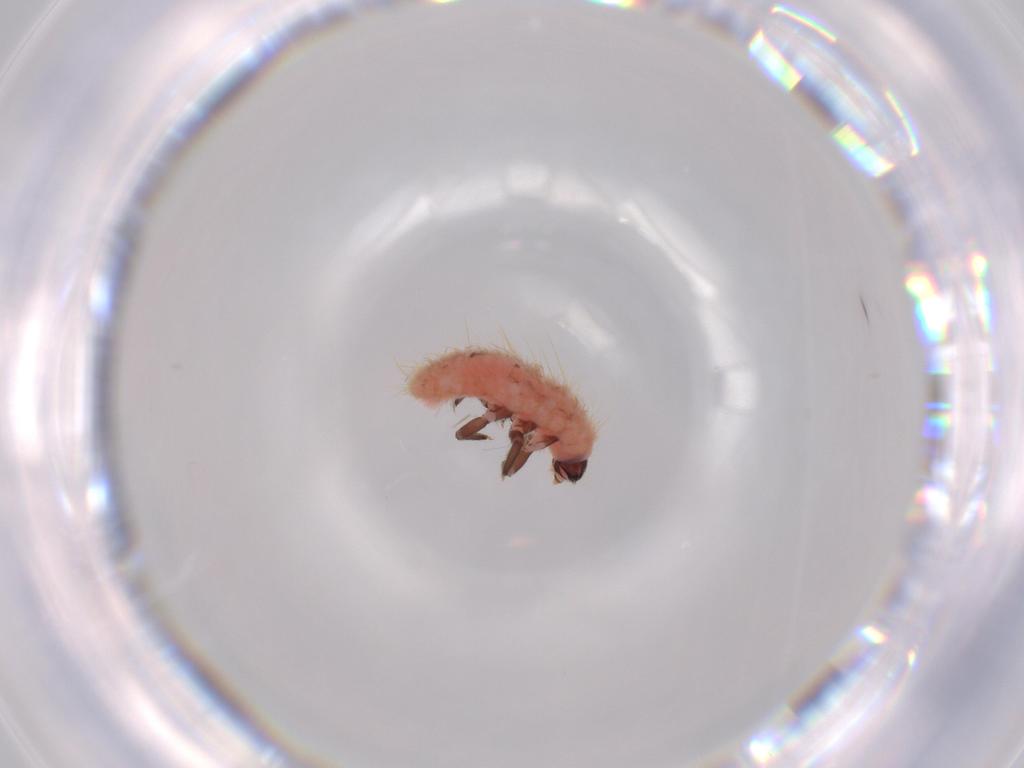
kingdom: Animalia
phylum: Arthropoda
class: Insecta
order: Coleoptera
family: Coccinellidae
